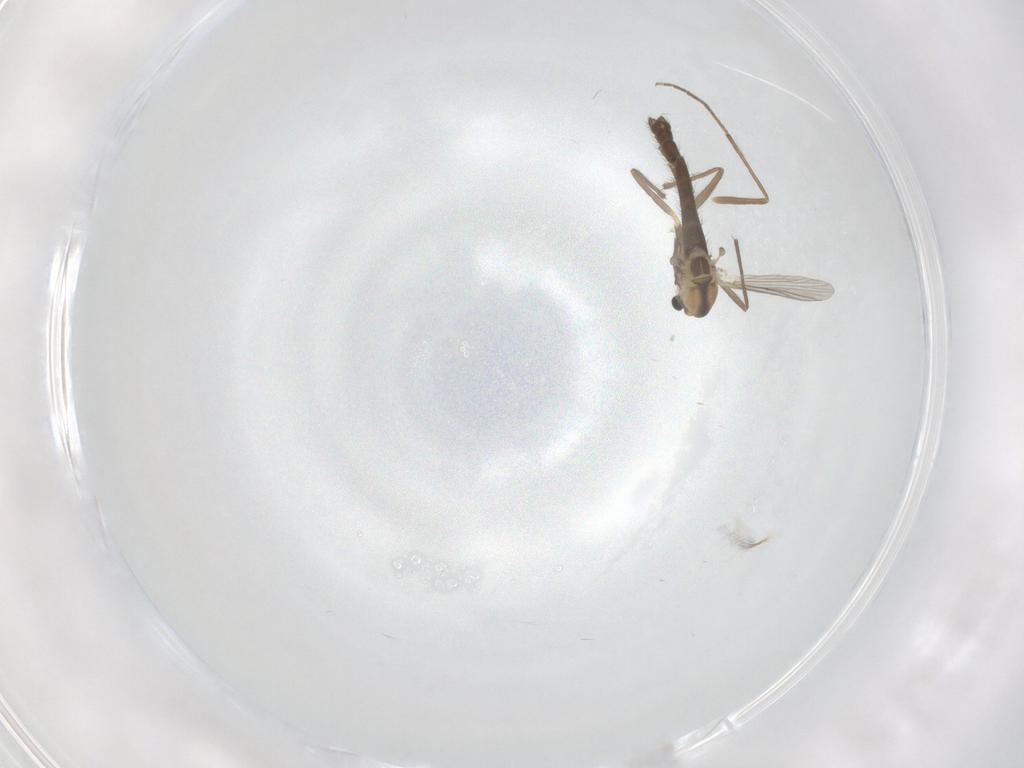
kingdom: Animalia
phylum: Arthropoda
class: Insecta
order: Diptera
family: Chironomidae
